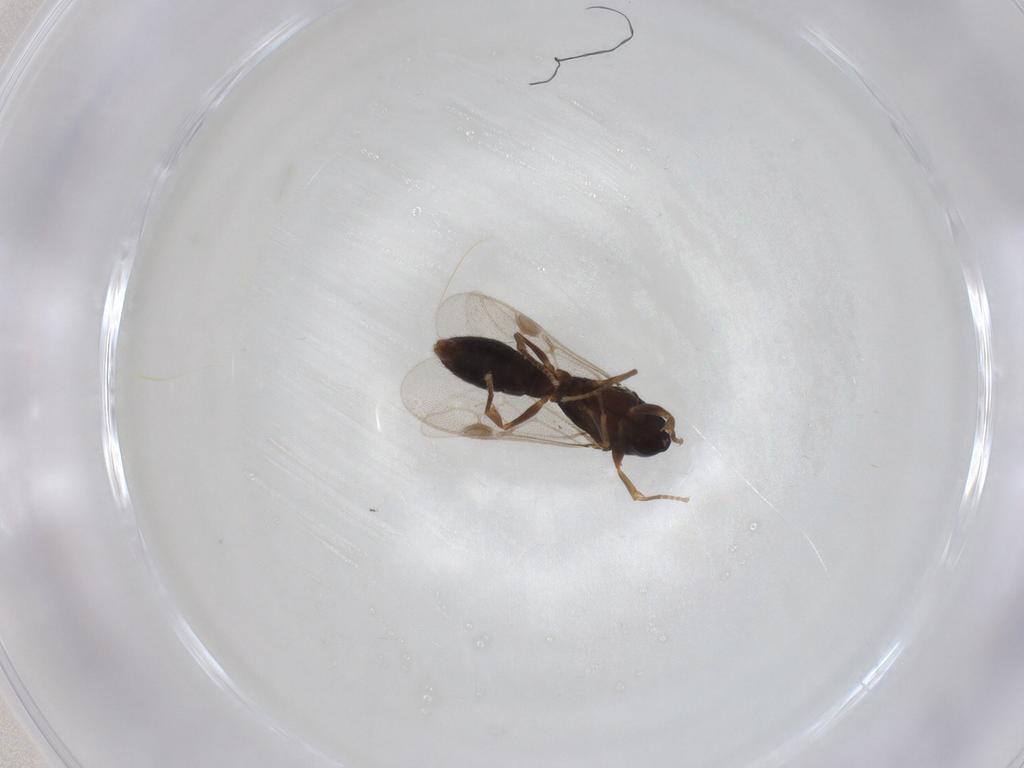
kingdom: Animalia
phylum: Arthropoda
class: Insecta
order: Hymenoptera
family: Formicidae
